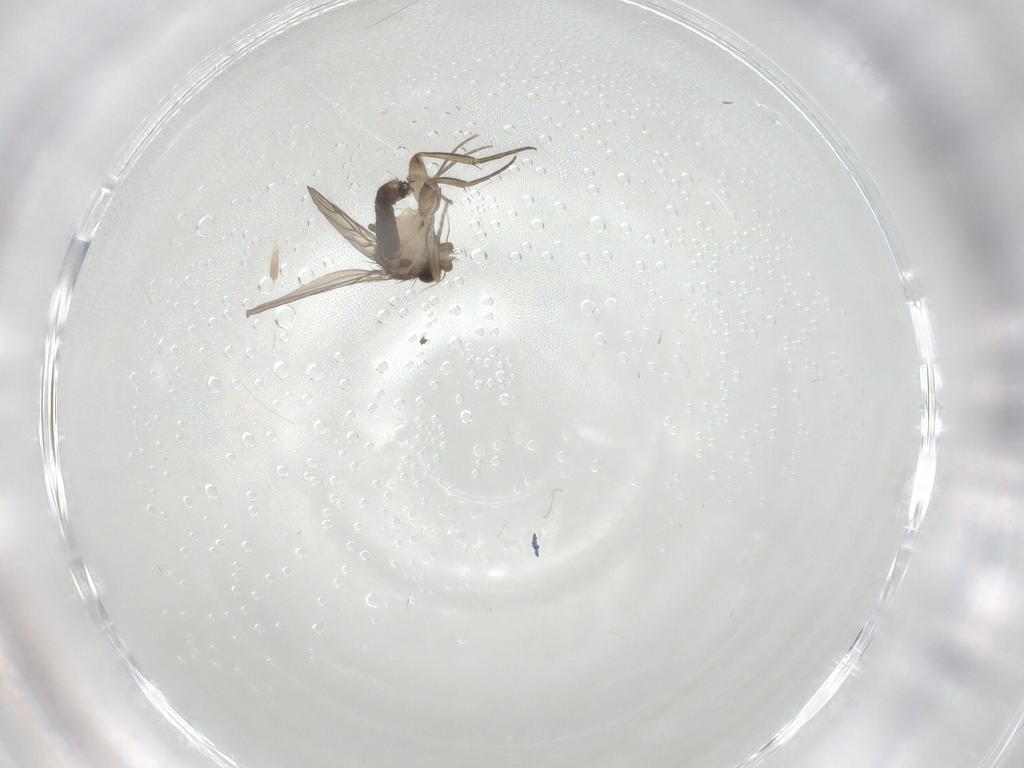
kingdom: Animalia
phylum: Arthropoda
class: Insecta
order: Diptera
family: Phoridae
